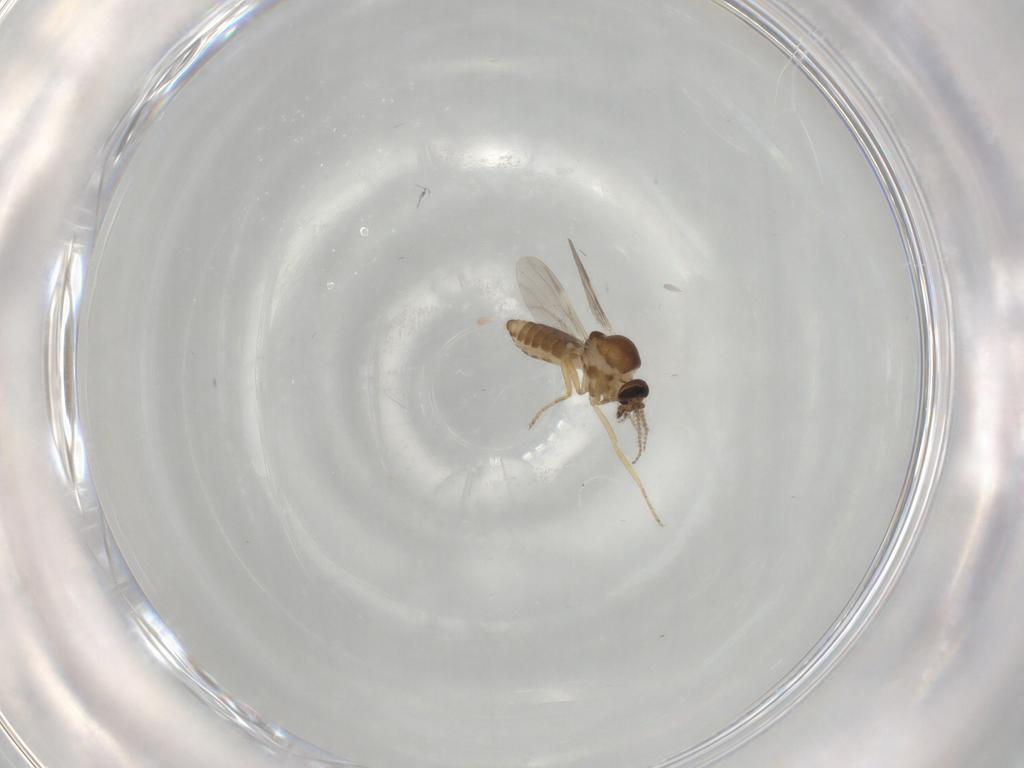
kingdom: Animalia
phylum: Arthropoda
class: Insecta
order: Diptera
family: Ceratopogonidae
